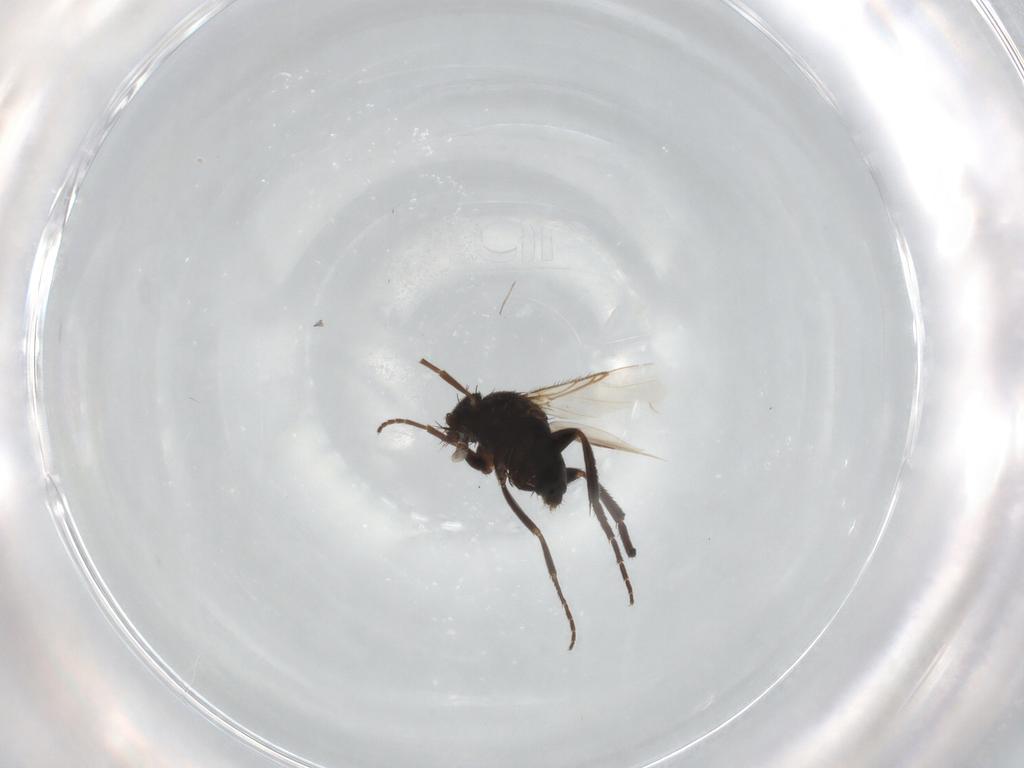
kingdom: Animalia
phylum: Arthropoda
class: Insecta
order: Diptera
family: Phoridae
